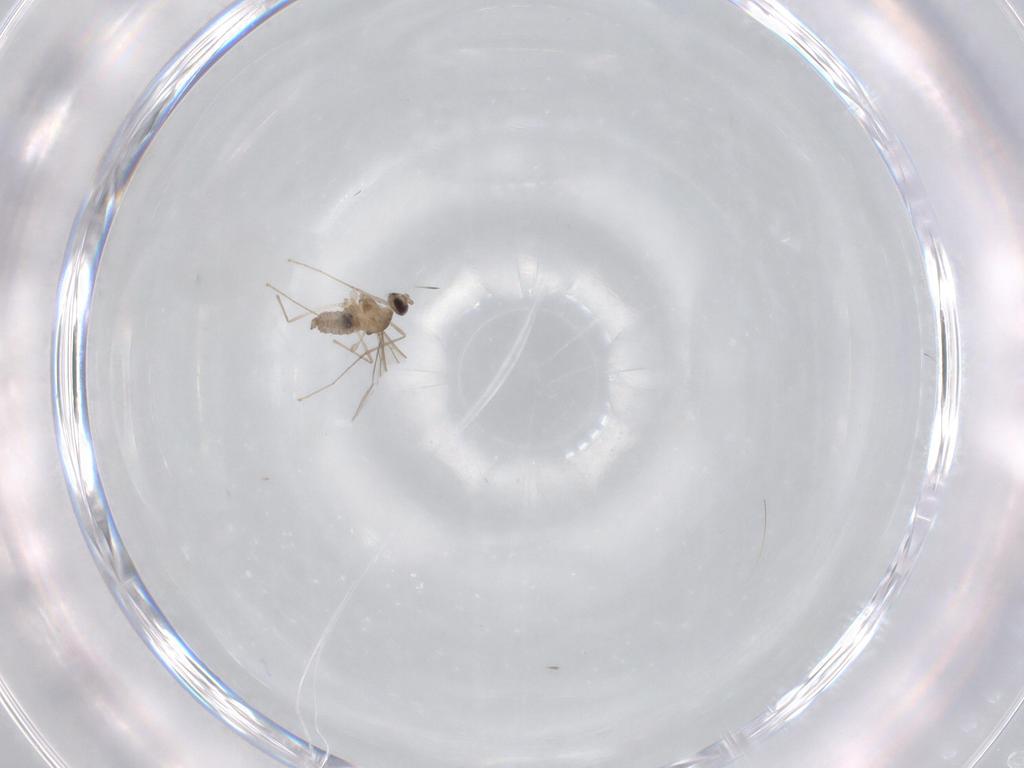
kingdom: Animalia
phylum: Arthropoda
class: Insecta
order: Diptera
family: Cecidomyiidae
